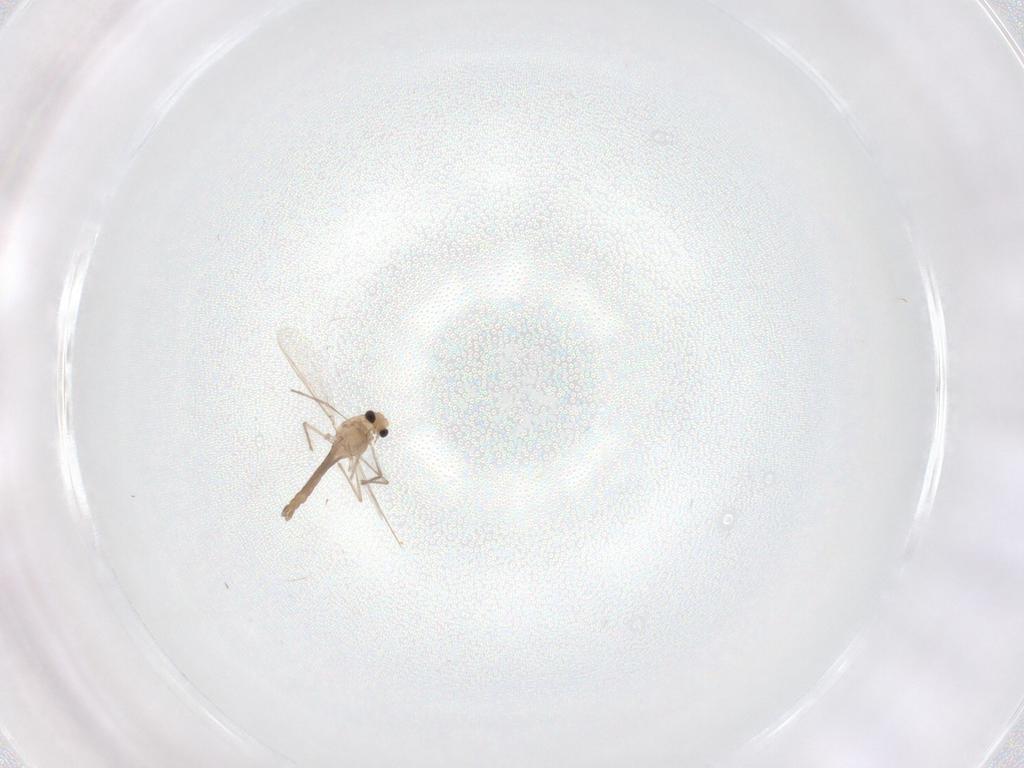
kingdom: Animalia
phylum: Arthropoda
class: Insecta
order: Diptera
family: Chironomidae
